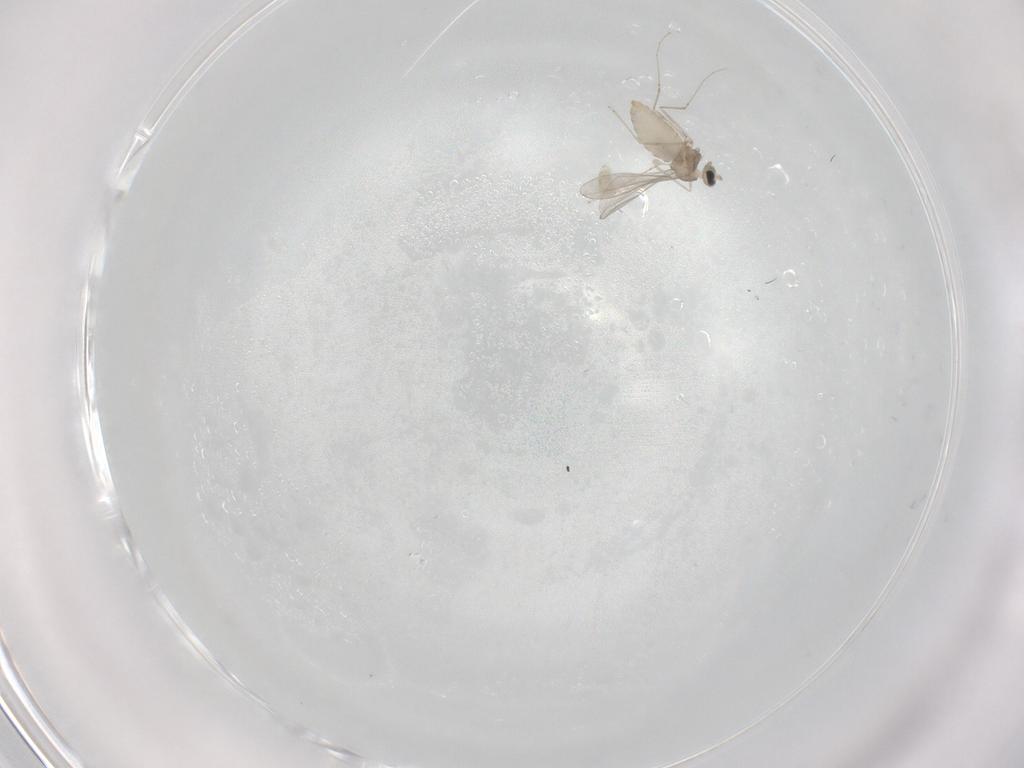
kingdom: Animalia
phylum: Arthropoda
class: Insecta
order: Diptera
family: Cecidomyiidae
